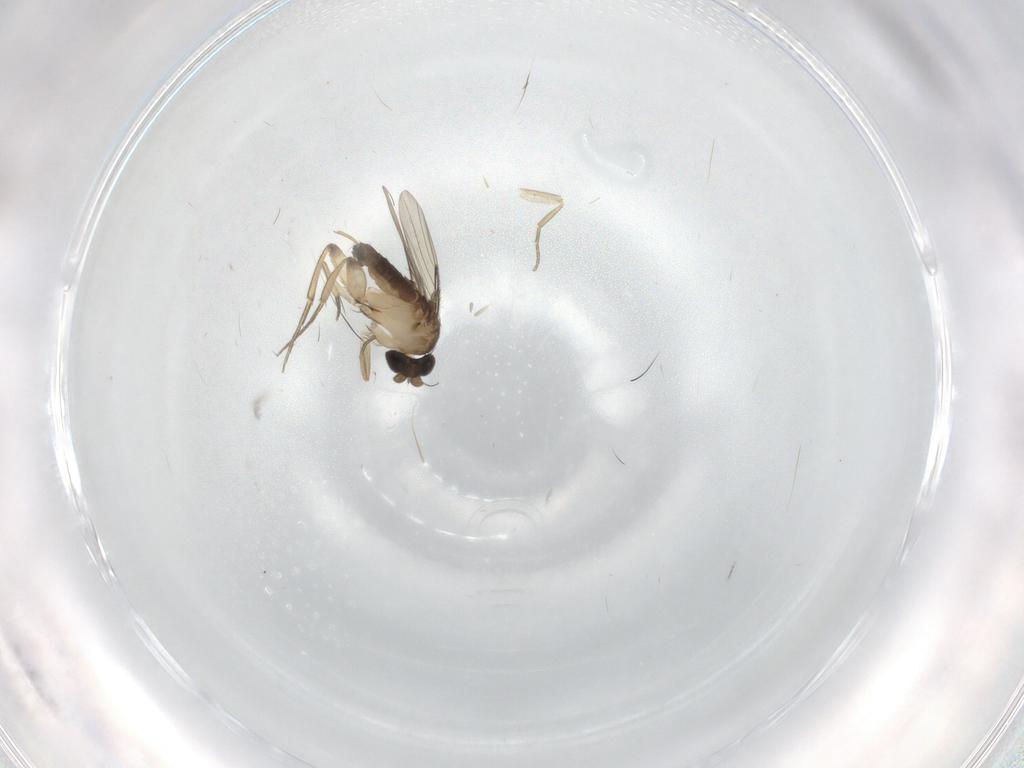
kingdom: Animalia
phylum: Arthropoda
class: Insecta
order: Diptera
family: Phoridae
